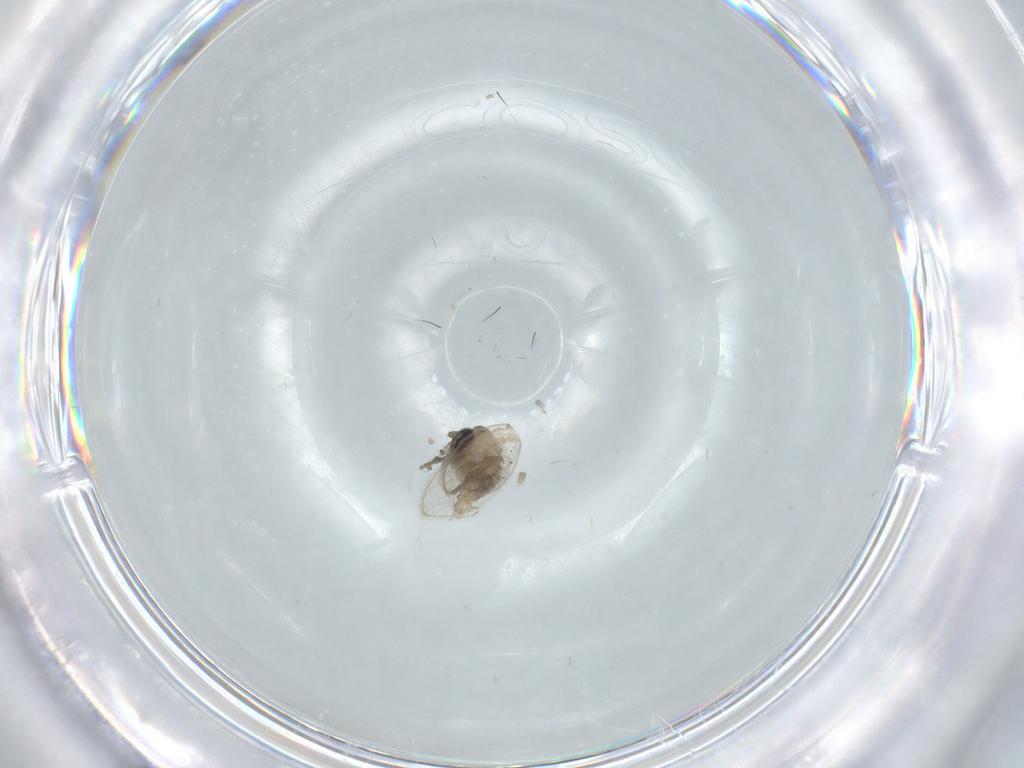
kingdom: Animalia
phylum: Arthropoda
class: Insecta
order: Diptera
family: Psychodidae
